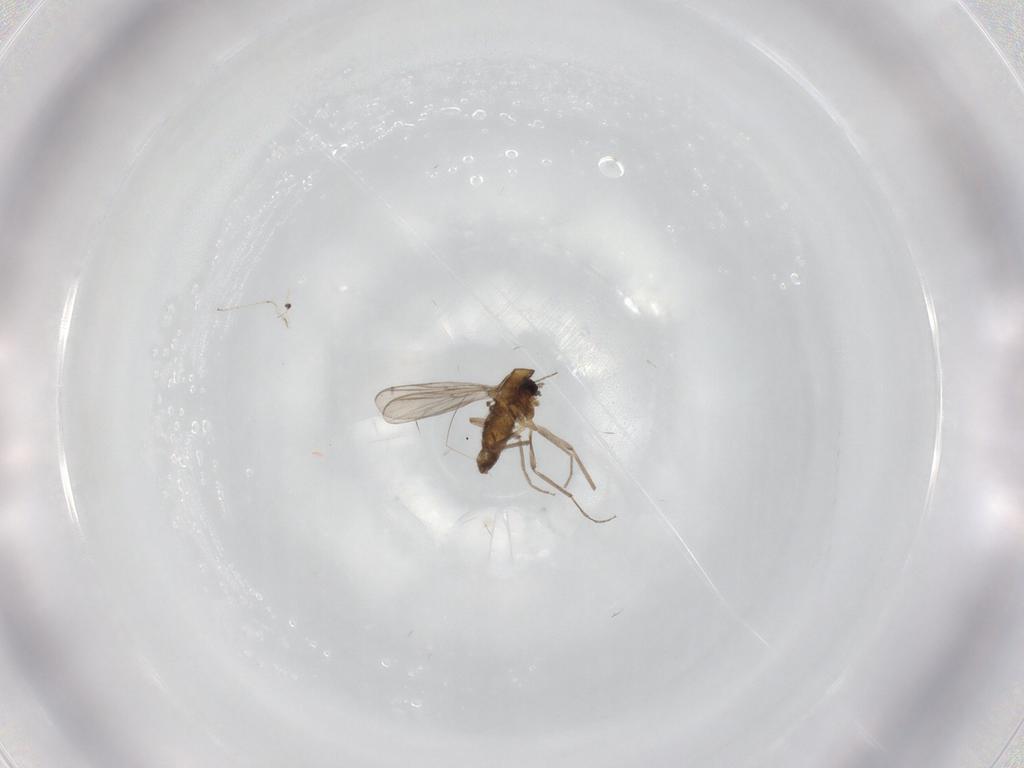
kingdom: Animalia
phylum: Arthropoda
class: Insecta
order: Diptera
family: Chironomidae
